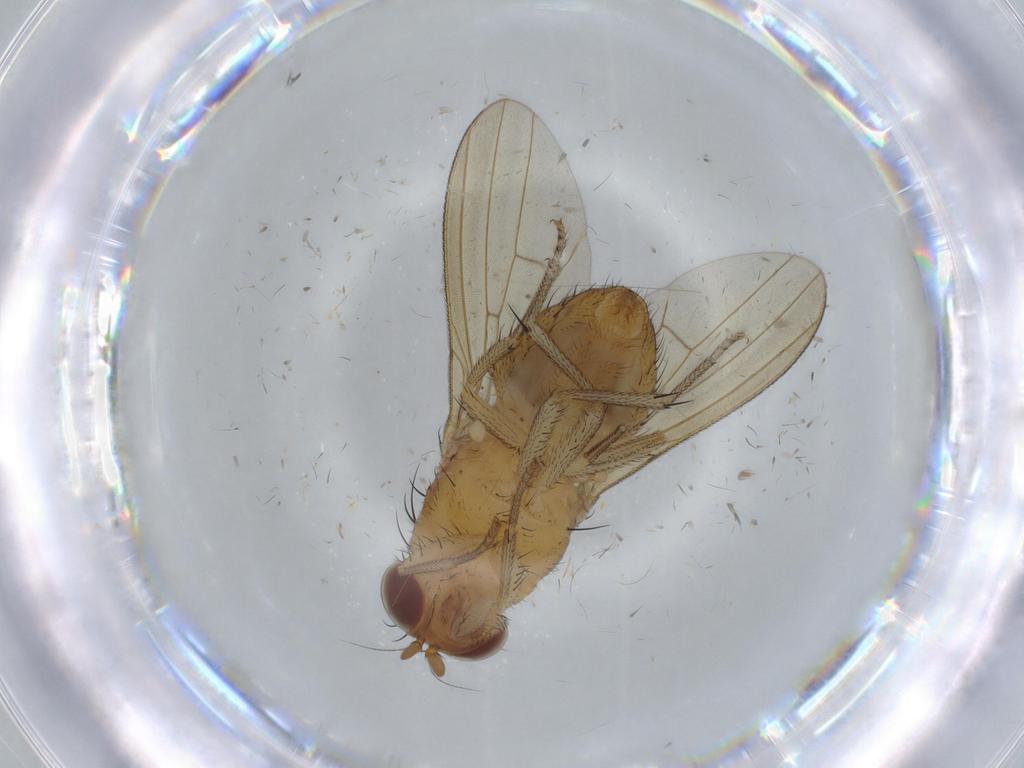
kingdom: Animalia
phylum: Arthropoda
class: Insecta
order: Diptera
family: Lauxaniidae
